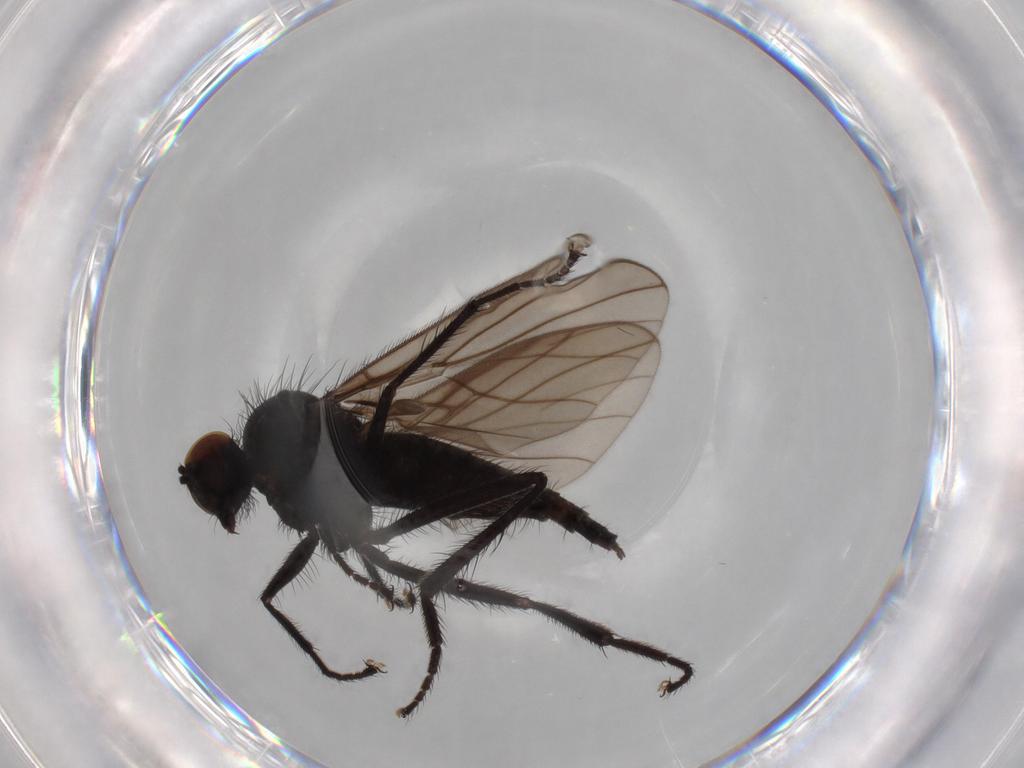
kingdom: Animalia
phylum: Arthropoda
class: Insecta
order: Diptera
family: Hybotidae
